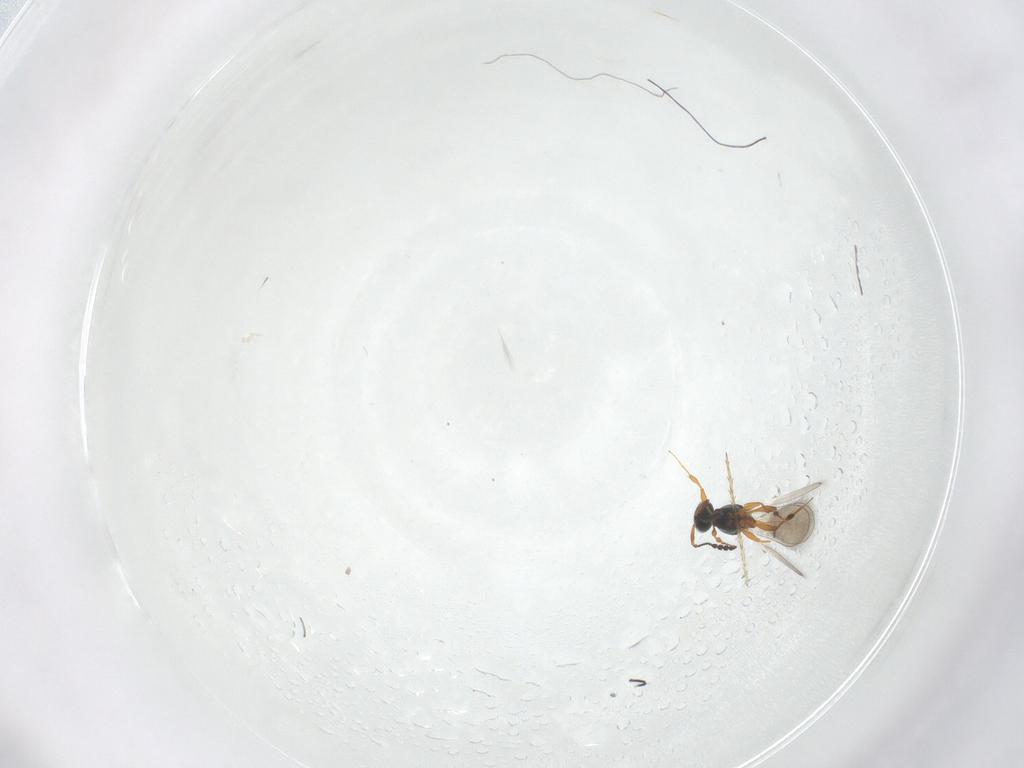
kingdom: Animalia
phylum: Arthropoda
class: Insecta
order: Hymenoptera
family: Platygastridae
